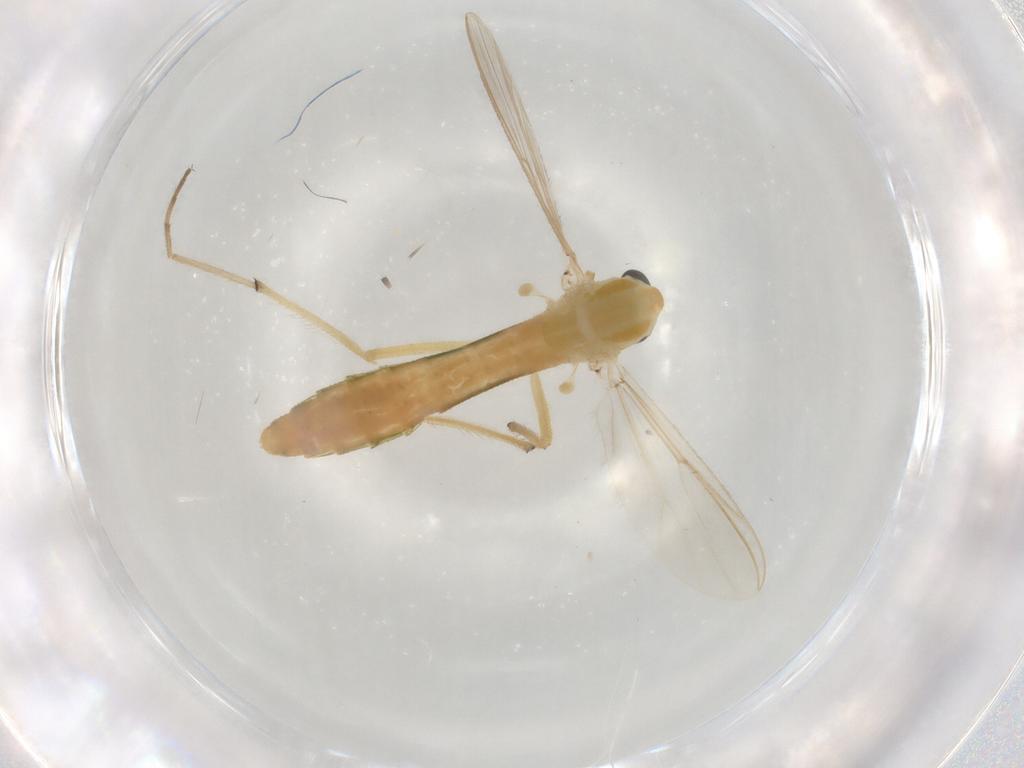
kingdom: Animalia
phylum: Arthropoda
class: Insecta
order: Diptera
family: Chironomidae
